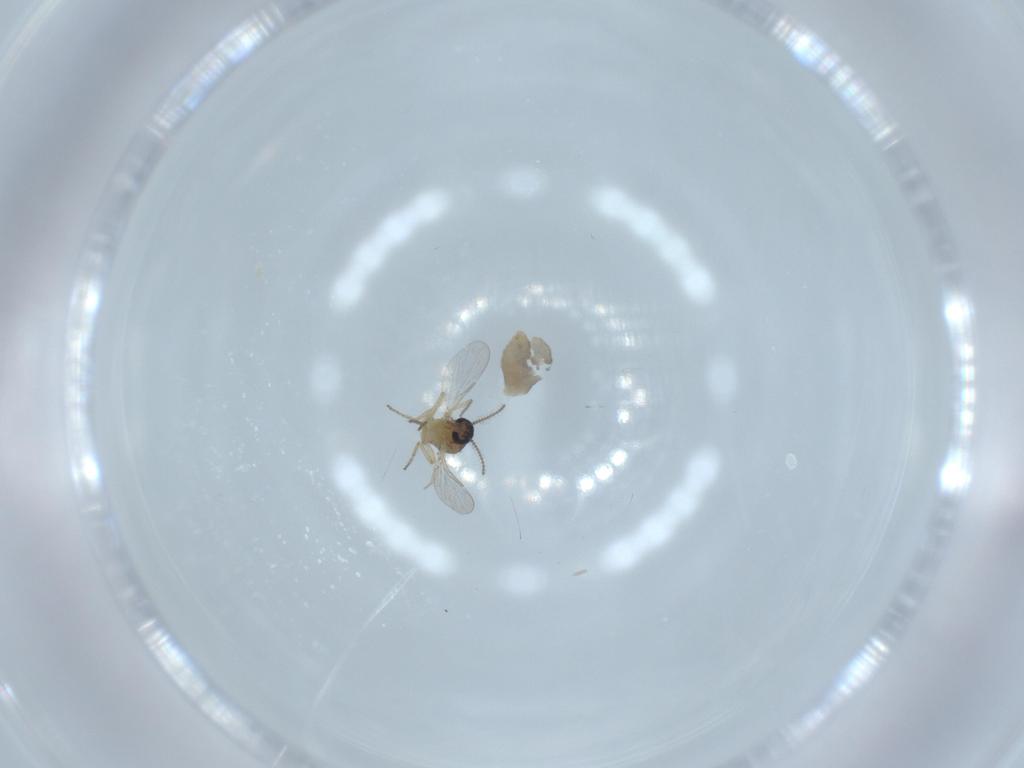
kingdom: Animalia
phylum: Arthropoda
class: Insecta
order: Diptera
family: Ceratopogonidae
